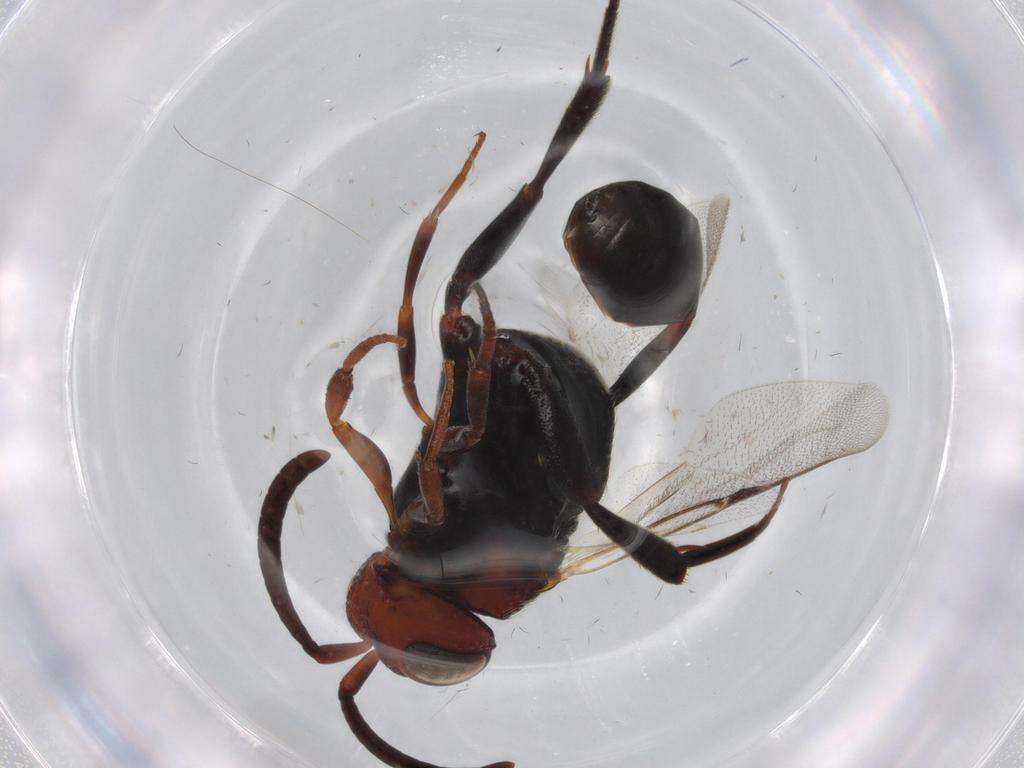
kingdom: Animalia
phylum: Arthropoda
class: Insecta
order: Hymenoptera
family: Evaniidae
